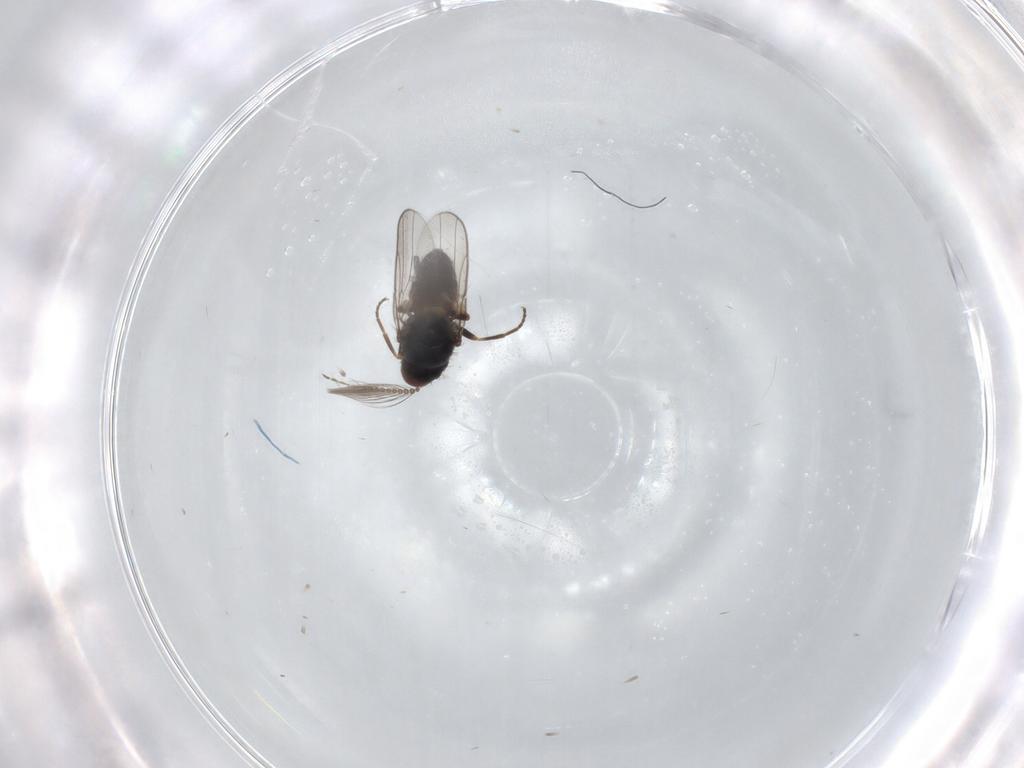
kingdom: Animalia
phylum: Arthropoda
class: Insecta
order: Diptera
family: Chloropidae
